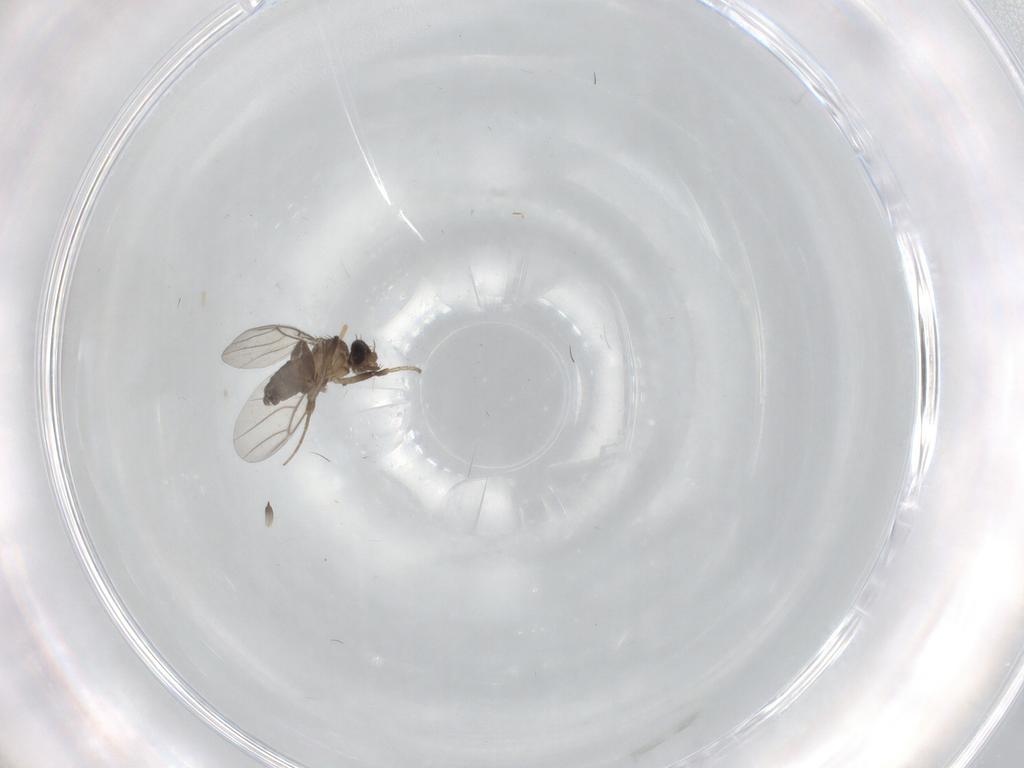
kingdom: Animalia
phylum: Arthropoda
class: Insecta
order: Diptera
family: Psychodidae
